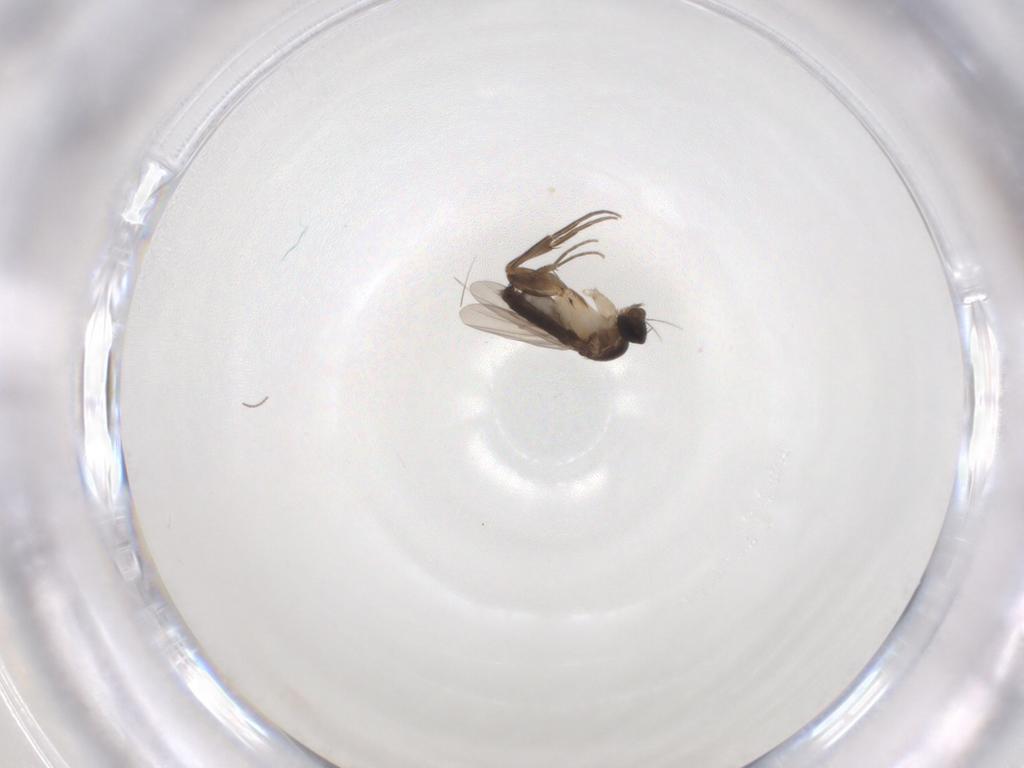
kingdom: Animalia
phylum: Arthropoda
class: Insecta
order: Diptera
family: Phoridae
